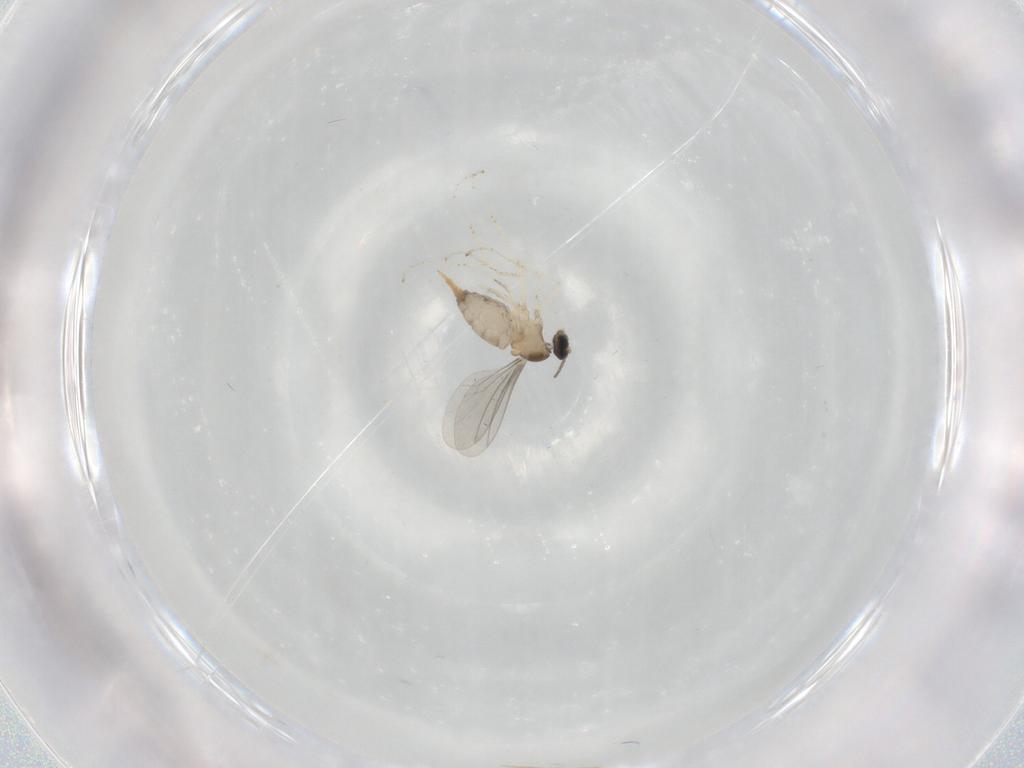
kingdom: Animalia
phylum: Arthropoda
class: Insecta
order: Diptera
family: Cecidomyiidae
